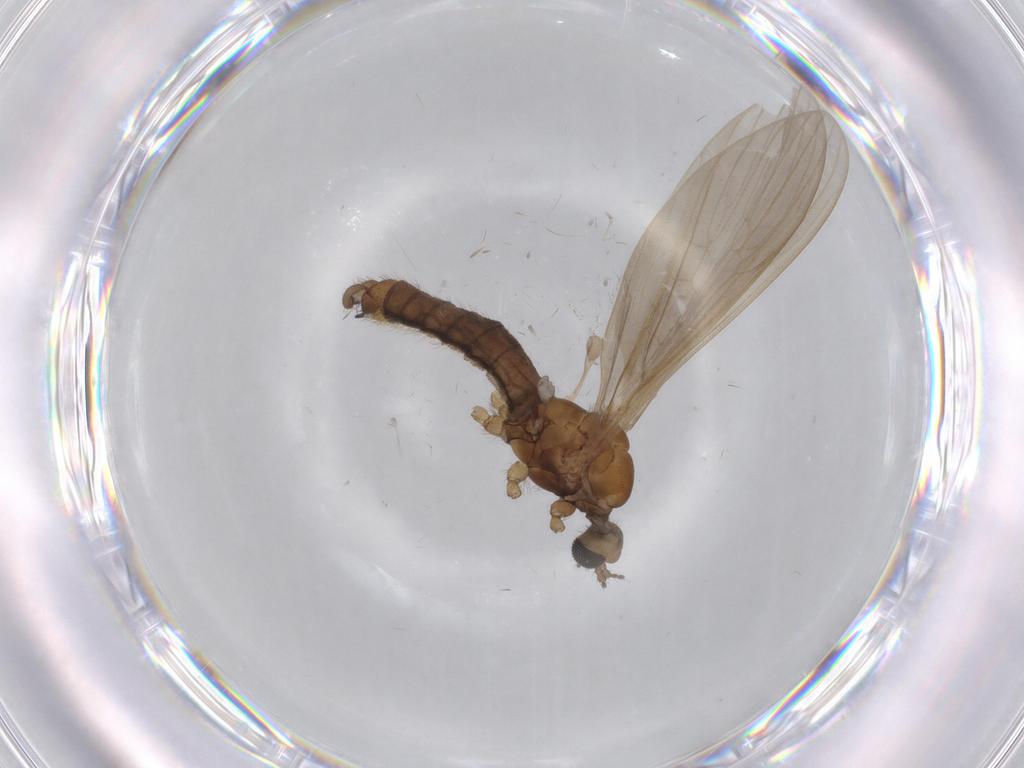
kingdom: Animalia
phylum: Arthropoda
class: Insecta
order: Diptera
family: Limoniidae
